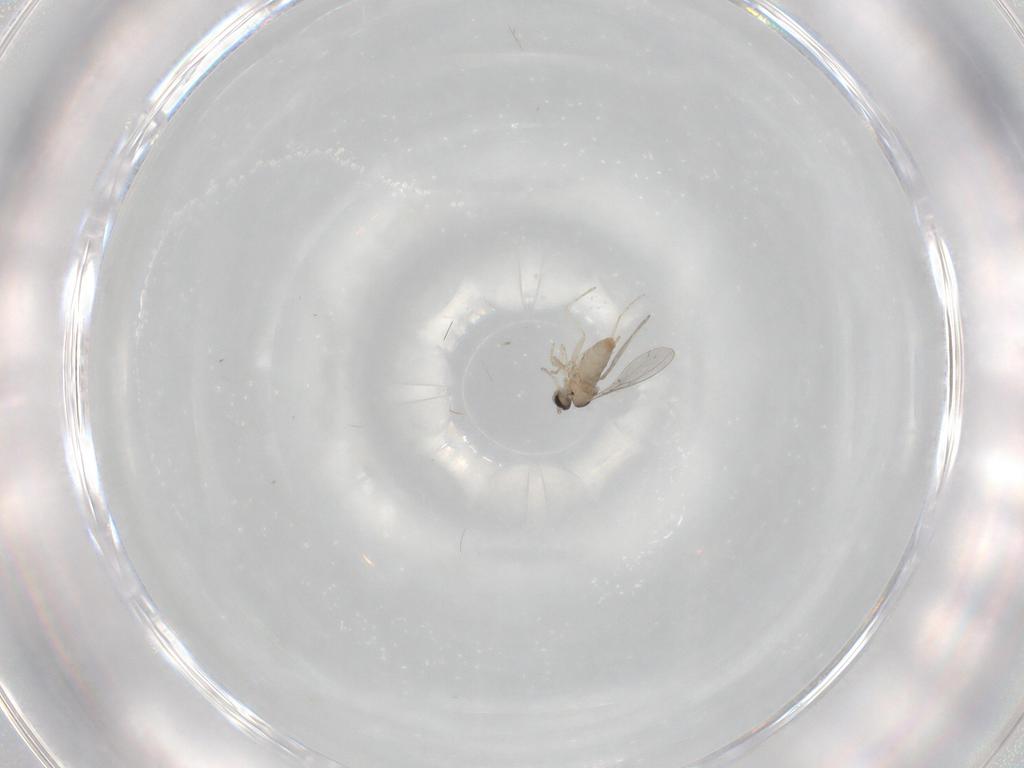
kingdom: Animalia
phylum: Arthropoda
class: Insecta
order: Diptera
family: Cecidomyiidae
